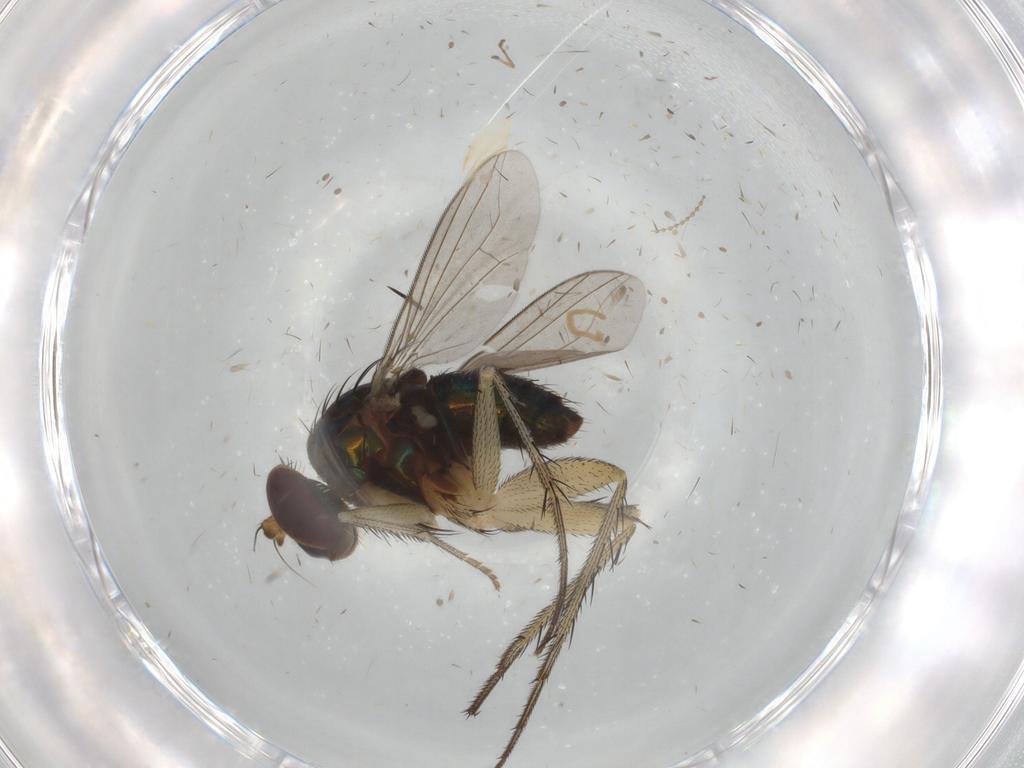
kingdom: Animalia
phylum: Arthropoda
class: Insecta
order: Diptera
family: Dolichopodidae
